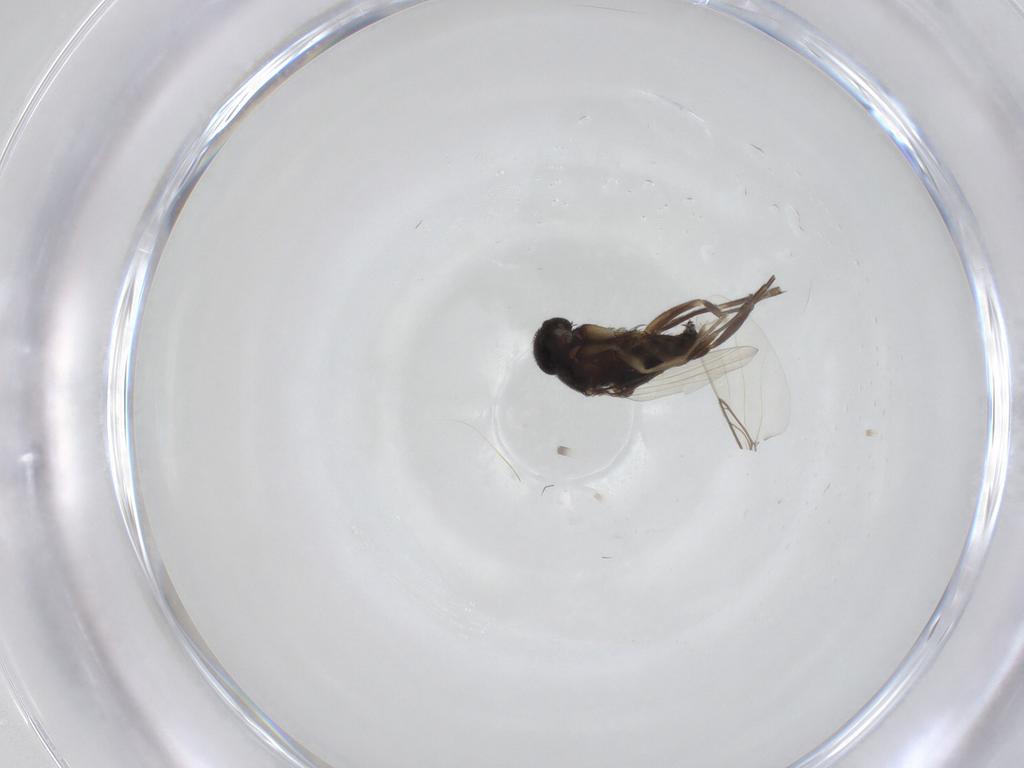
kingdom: Animalia
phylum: Arthropoda
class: Insecta
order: Diptera
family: Phoridae
